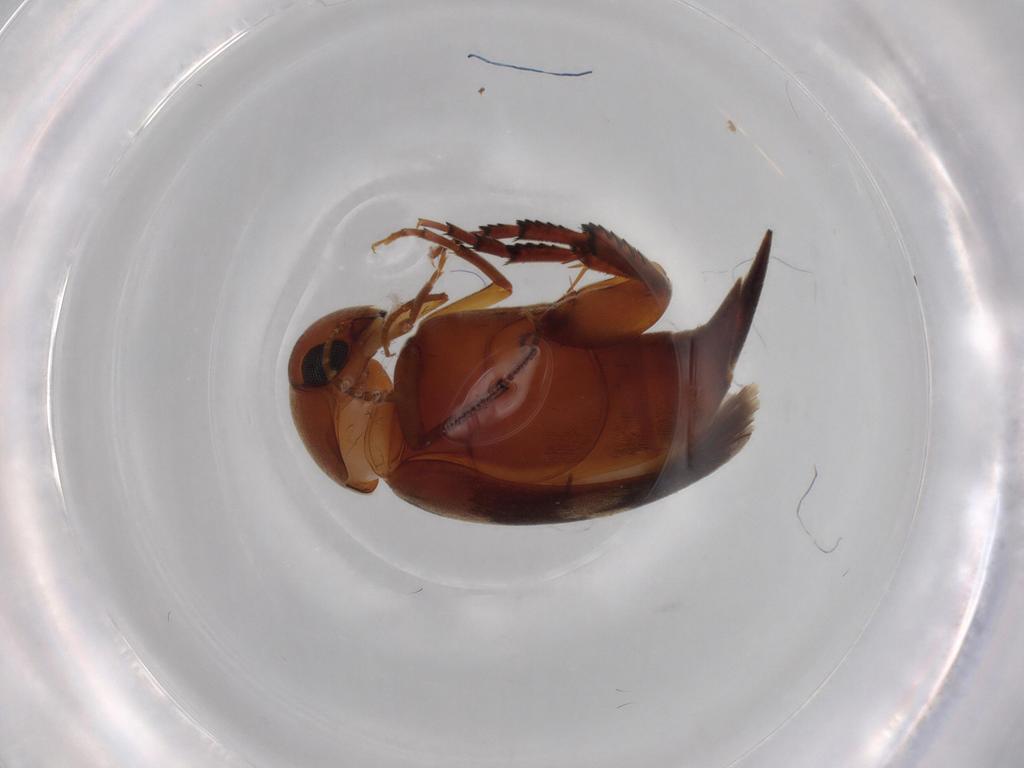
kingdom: Animalia
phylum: Arthropoda
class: Insecta
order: Coleoptera
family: Mordellidae
